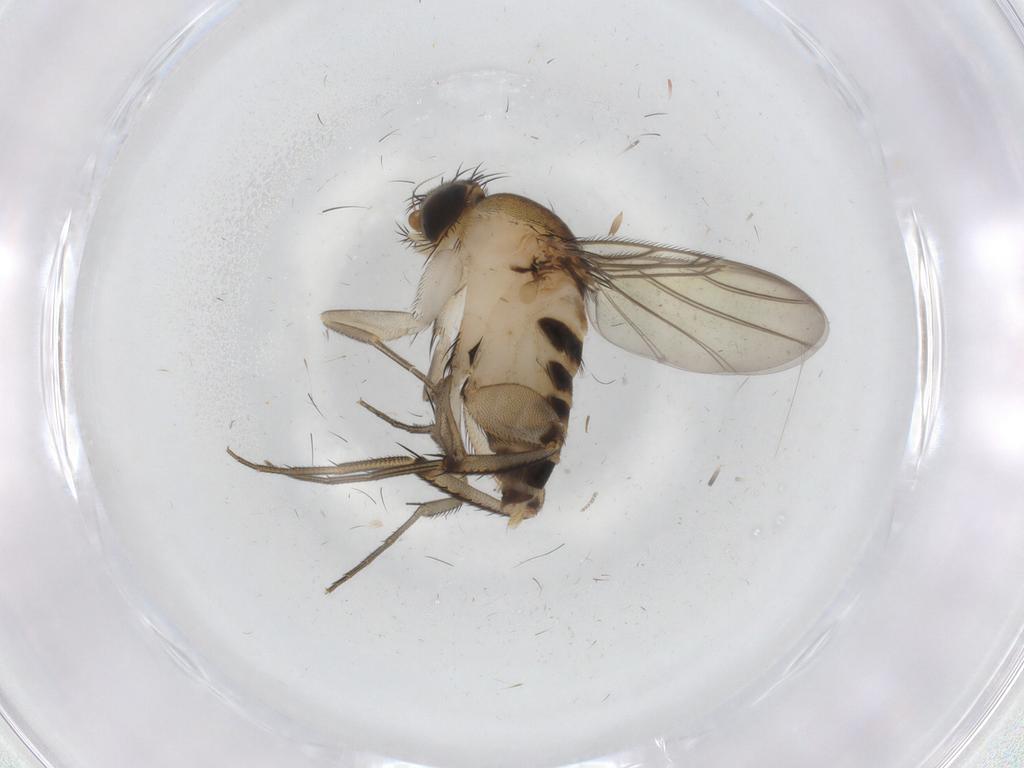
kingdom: Animalia
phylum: Arthropoda
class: Insecta
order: Diptera
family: Phoridae
